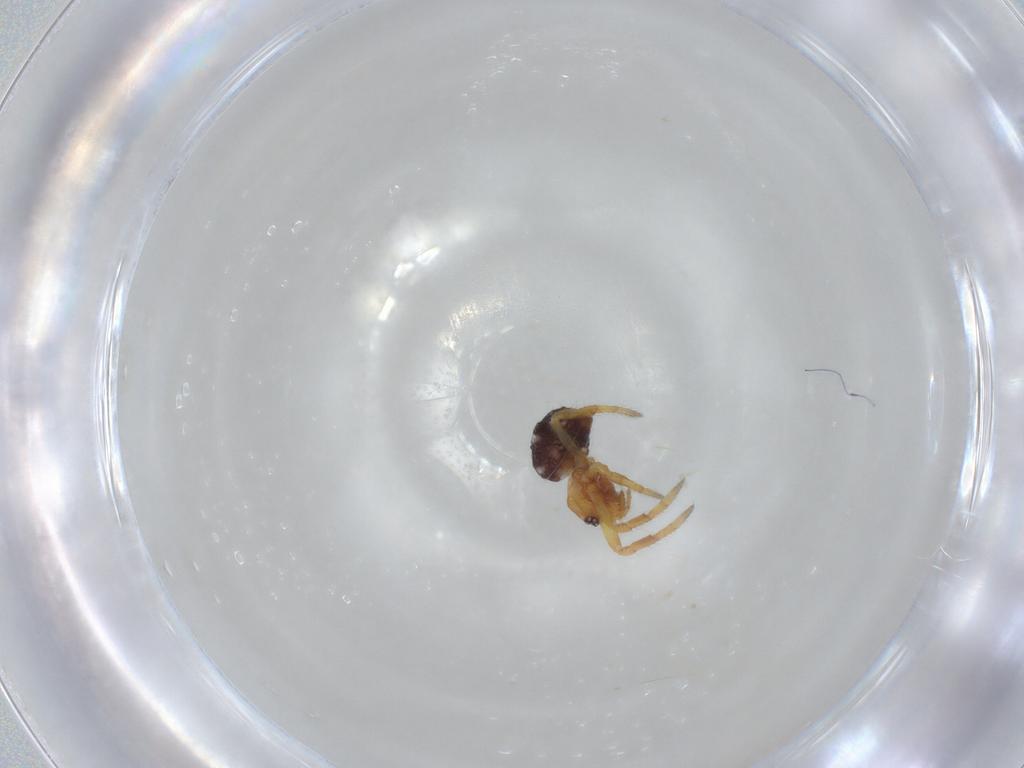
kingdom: Animalia
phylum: Arthropoda
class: Arachnida
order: Araneae
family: Theridiidae
